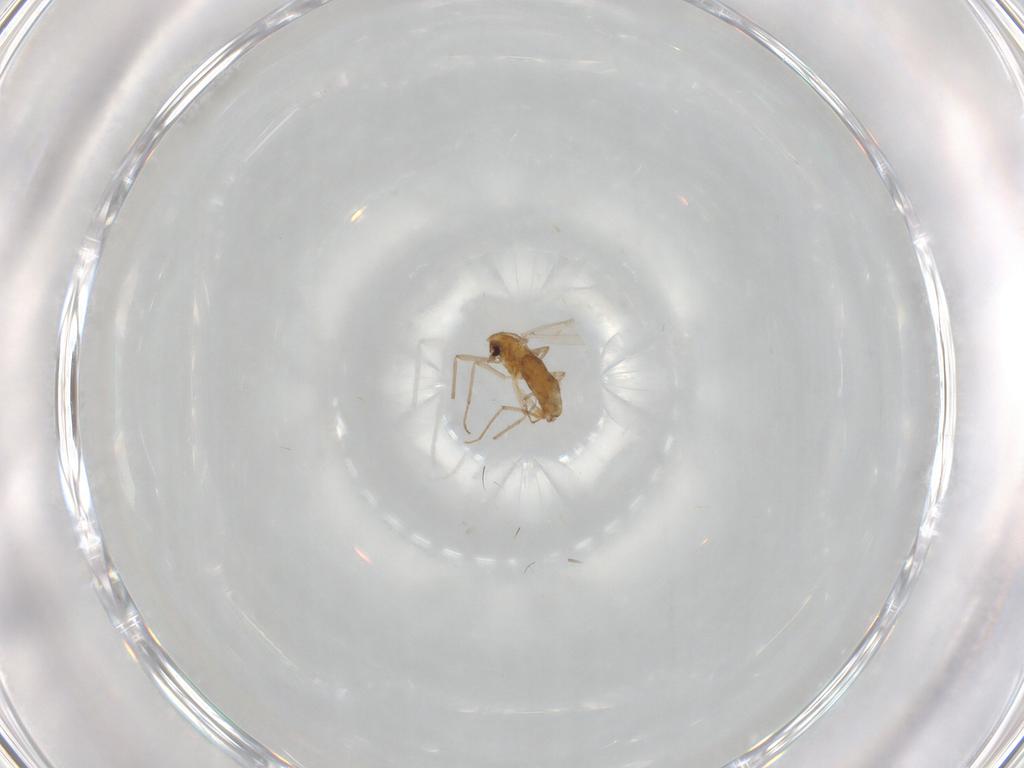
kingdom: Animalia
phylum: Arthropoda
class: Insecta
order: Diptera
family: Chironomidae
